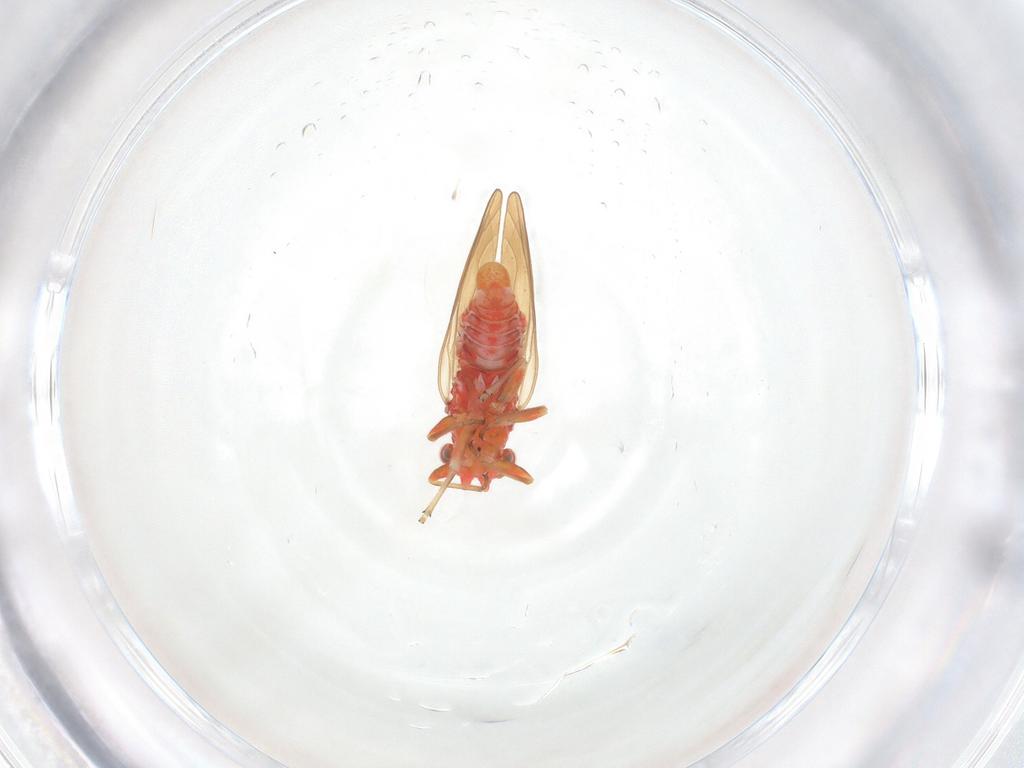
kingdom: Animalia
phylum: Arthropoda
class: Insecta
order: Hemiptera
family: Psyllidae
